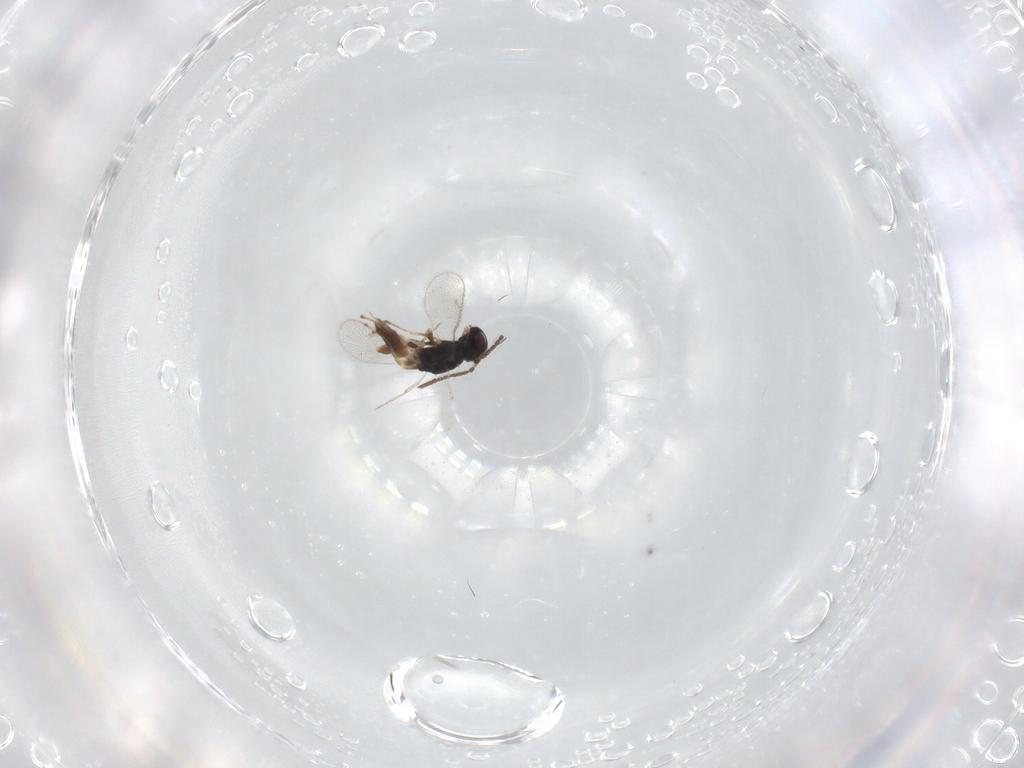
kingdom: Animalia
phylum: Arthropoda
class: Insecta
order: Hymenoptera
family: Pteromalidae
